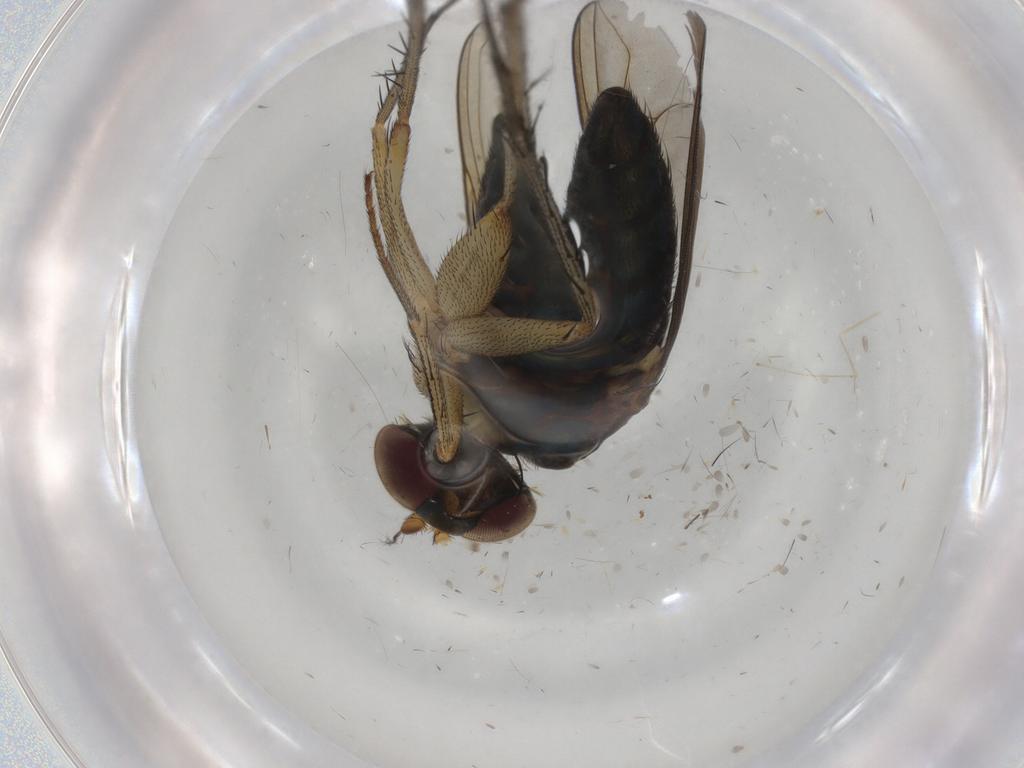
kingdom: Animalia
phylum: Arthropoda
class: Insecta
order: Diptera
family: Dolichopodidae
